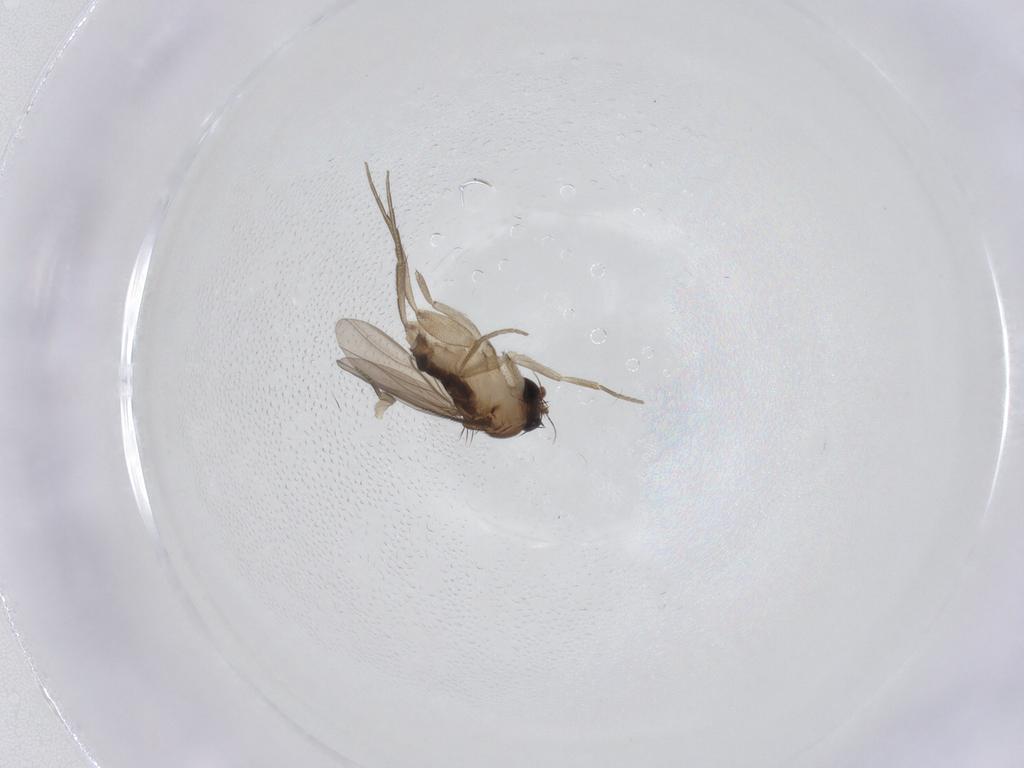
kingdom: Animalia
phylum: Arthropoda
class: Insecta
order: Diptera
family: Phoridae
